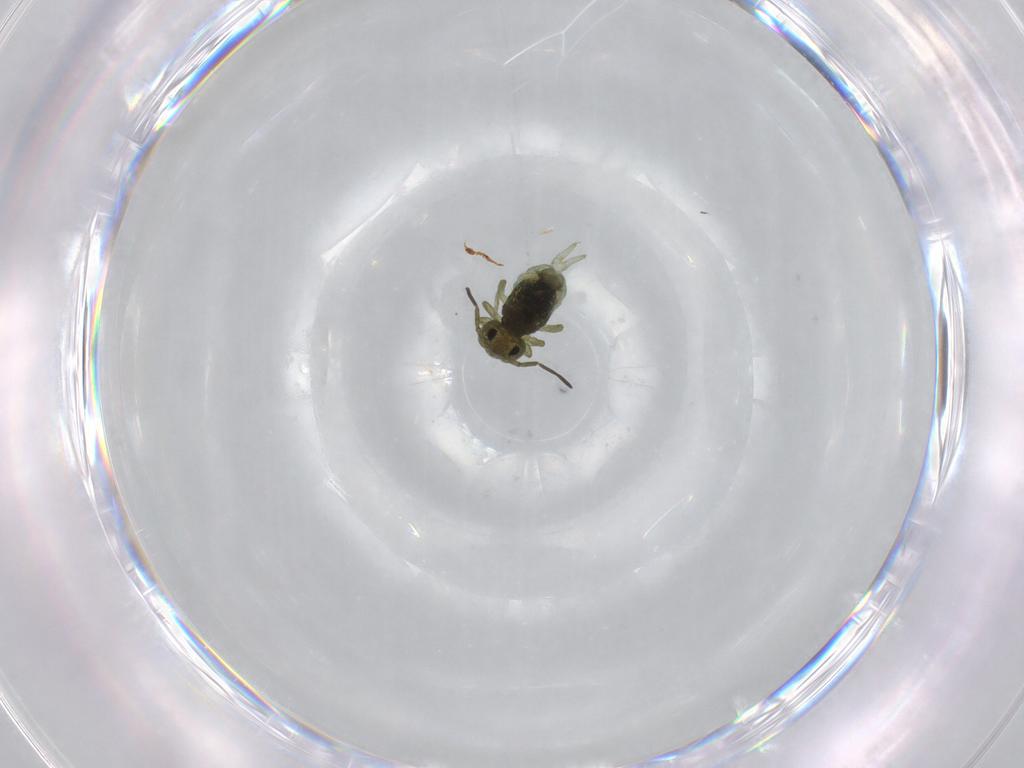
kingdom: Animalia
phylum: Arthropoda
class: Collembola
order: Symphypleona
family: Sminthuridae
